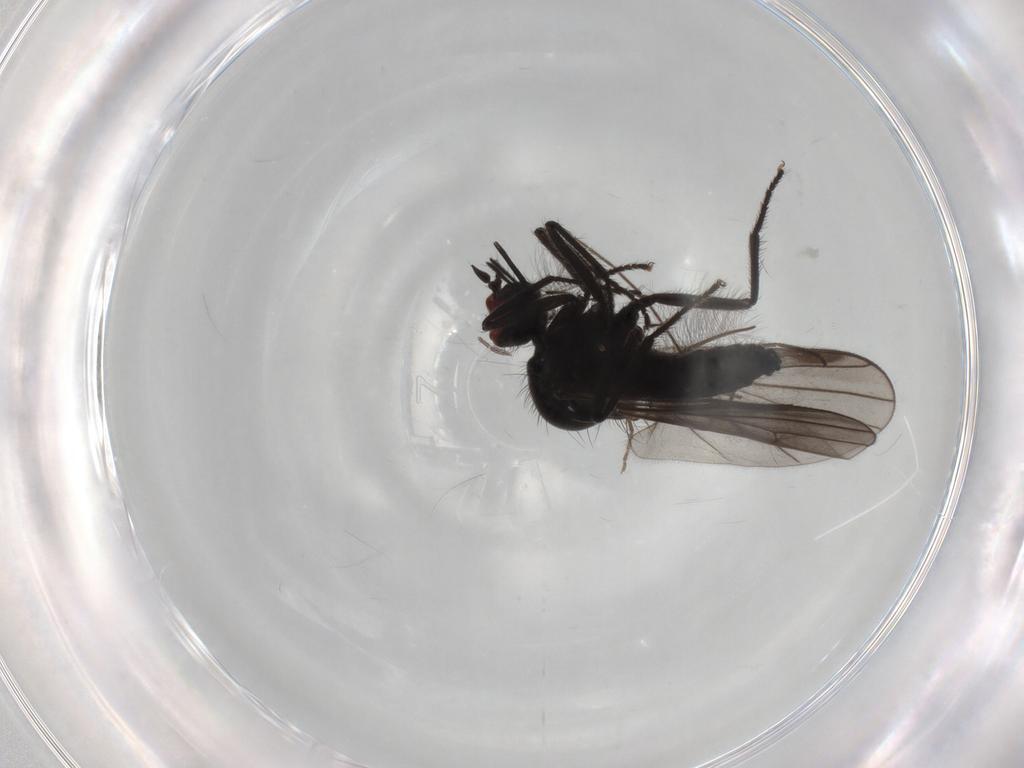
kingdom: Animalia
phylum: Arthropoda
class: Insecta
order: Diptera
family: Hybotidae
